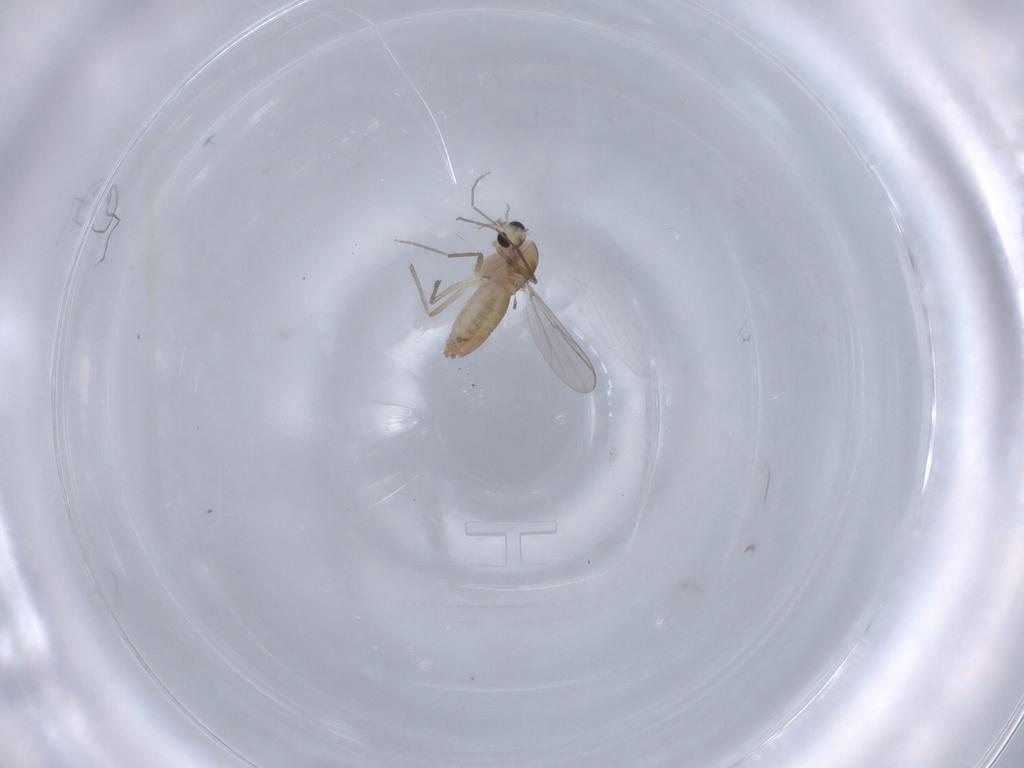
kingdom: Animalia
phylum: Arthropoda
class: Insecta
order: Diptera
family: Chironomidae
